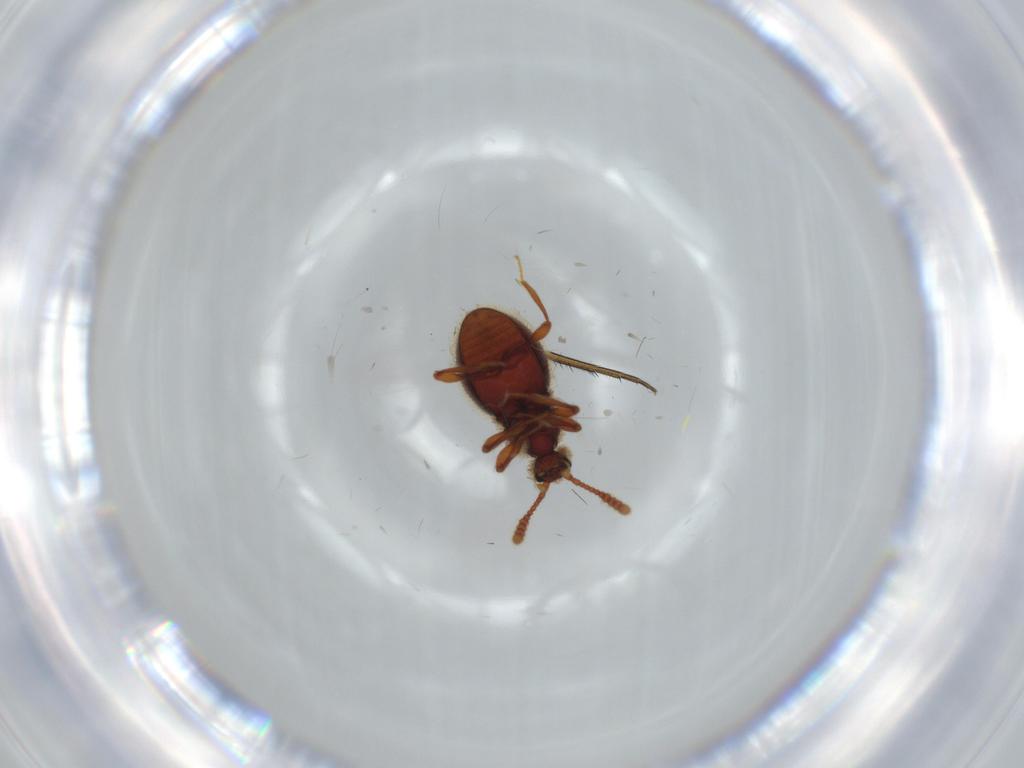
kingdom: Animalia
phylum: Arthropoda
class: Insecta
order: Coleoptera
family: Coccinellidae
